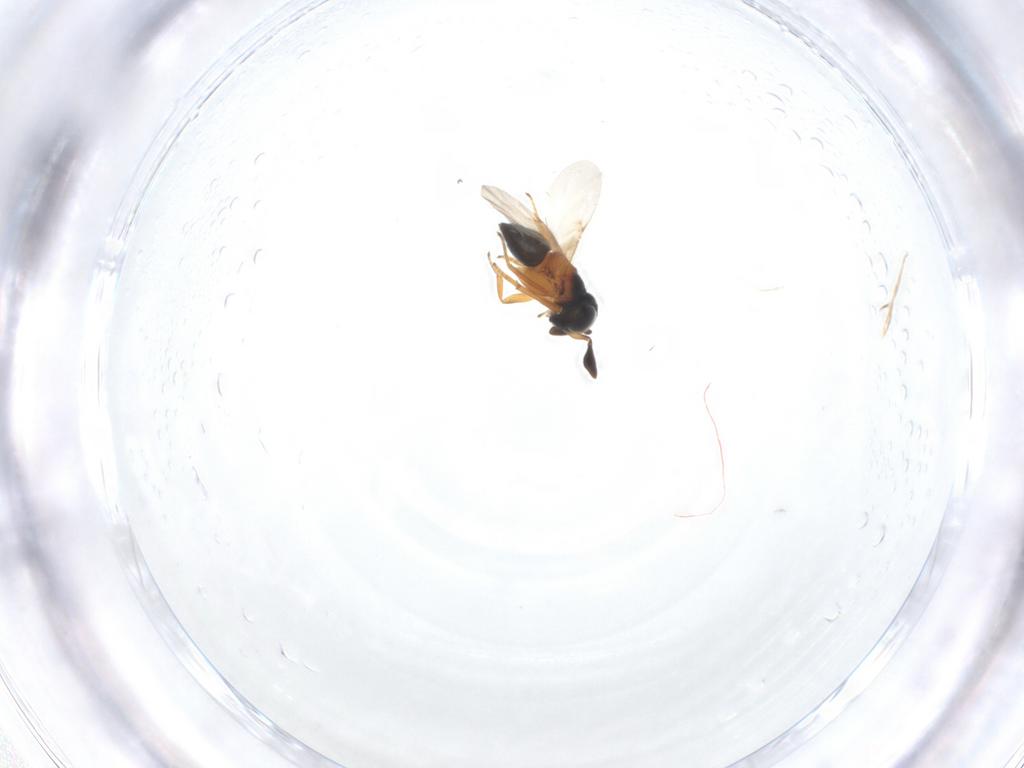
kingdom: Animalia
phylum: Arthropoda
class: Insecta
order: Hymenoptera
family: Encyrtidae
